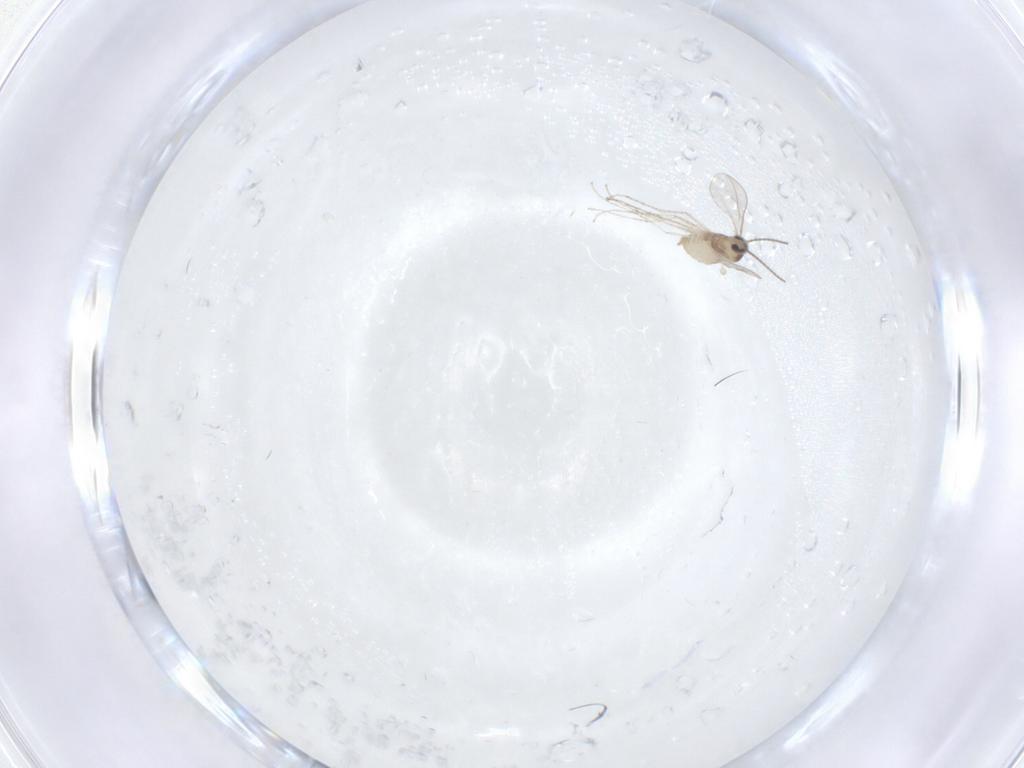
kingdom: Animalia
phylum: Arthropoda
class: Insecta
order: Diptera
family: Cecidomyiidae
